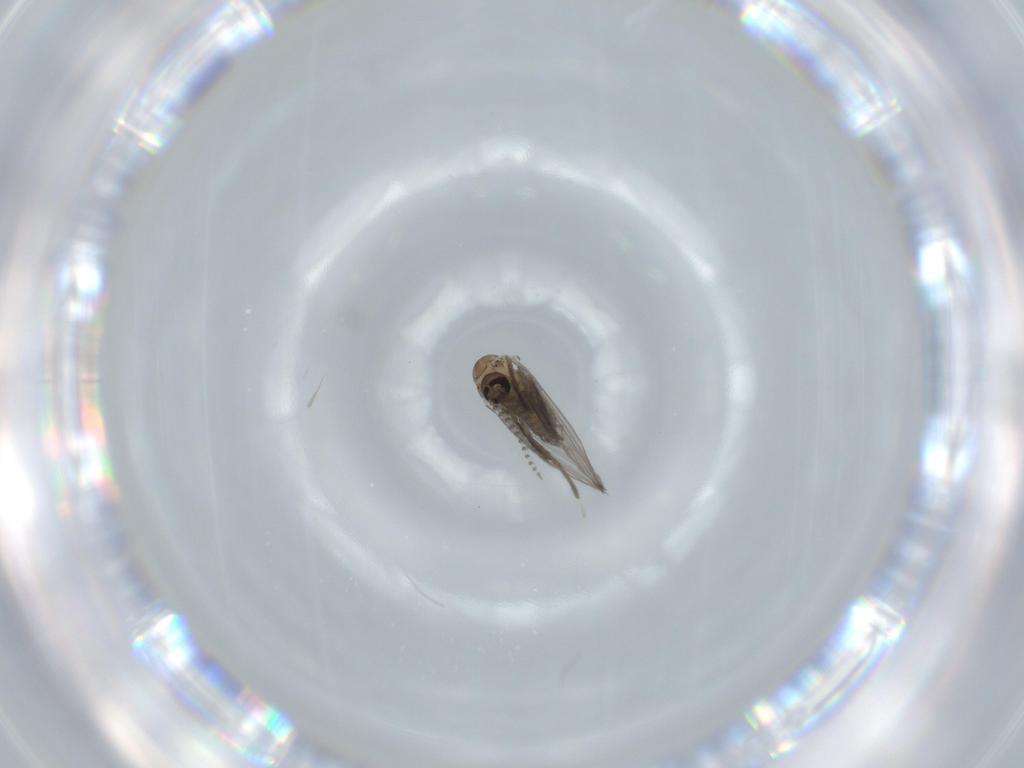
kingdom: Animalia
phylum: Arthropoda
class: Insecta
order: Diptera
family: Psychodidae
